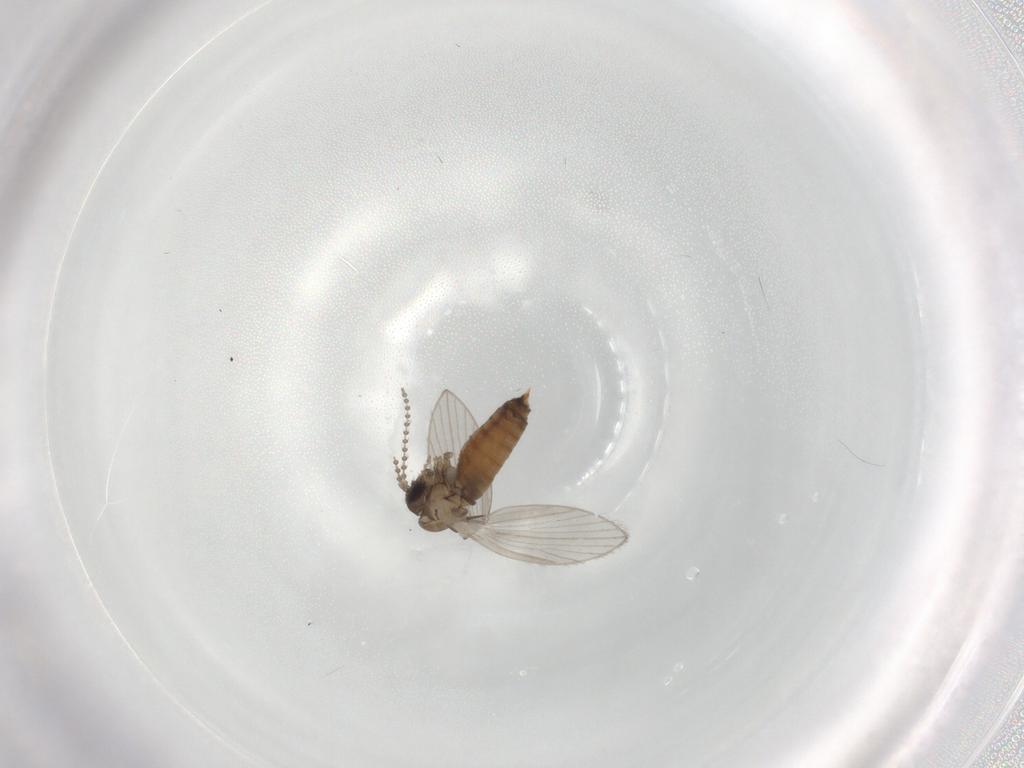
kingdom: Animalia
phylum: Arthropoda
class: Insecta
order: Diptera
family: Psychodidae
